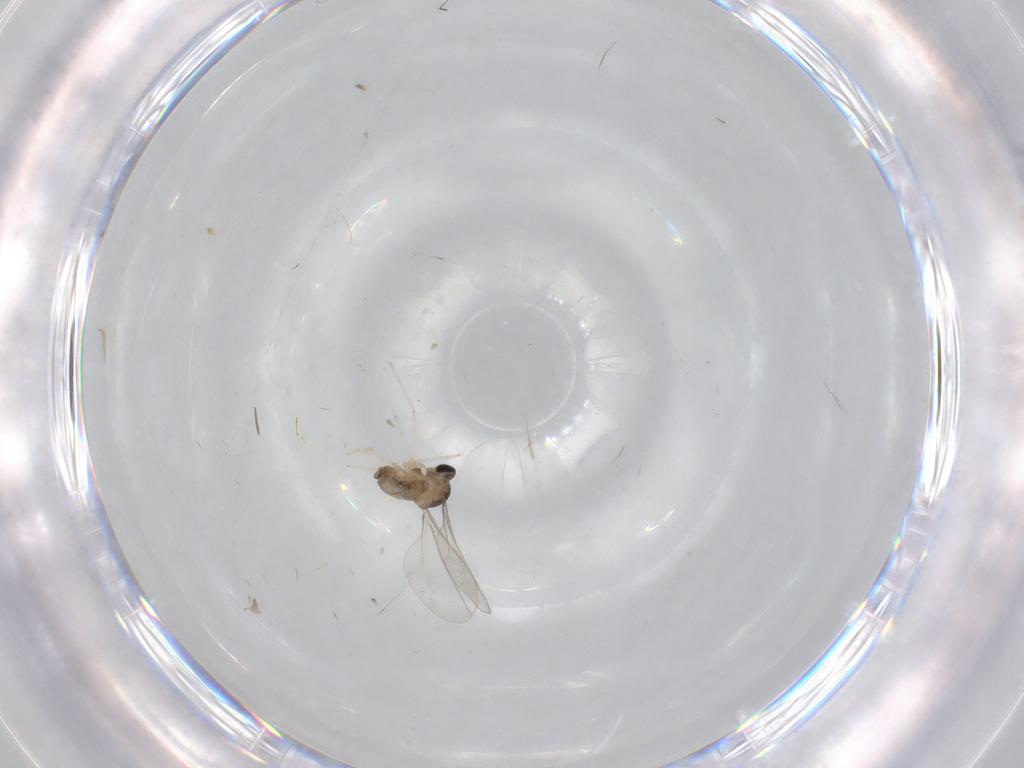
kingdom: Animalia
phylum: Arthropoda
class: Insecta
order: Diptera
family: Cecidomyiidae
